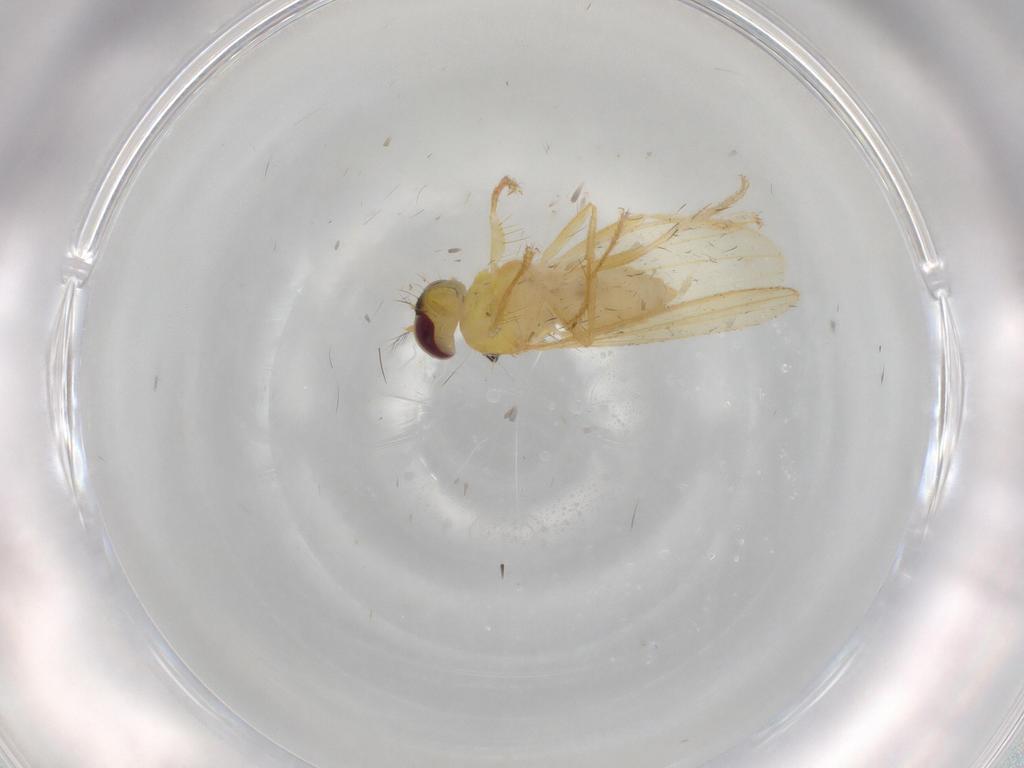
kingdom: Animalia
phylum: Arthropoda
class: Insecta
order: Diptera
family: Periscelididae
